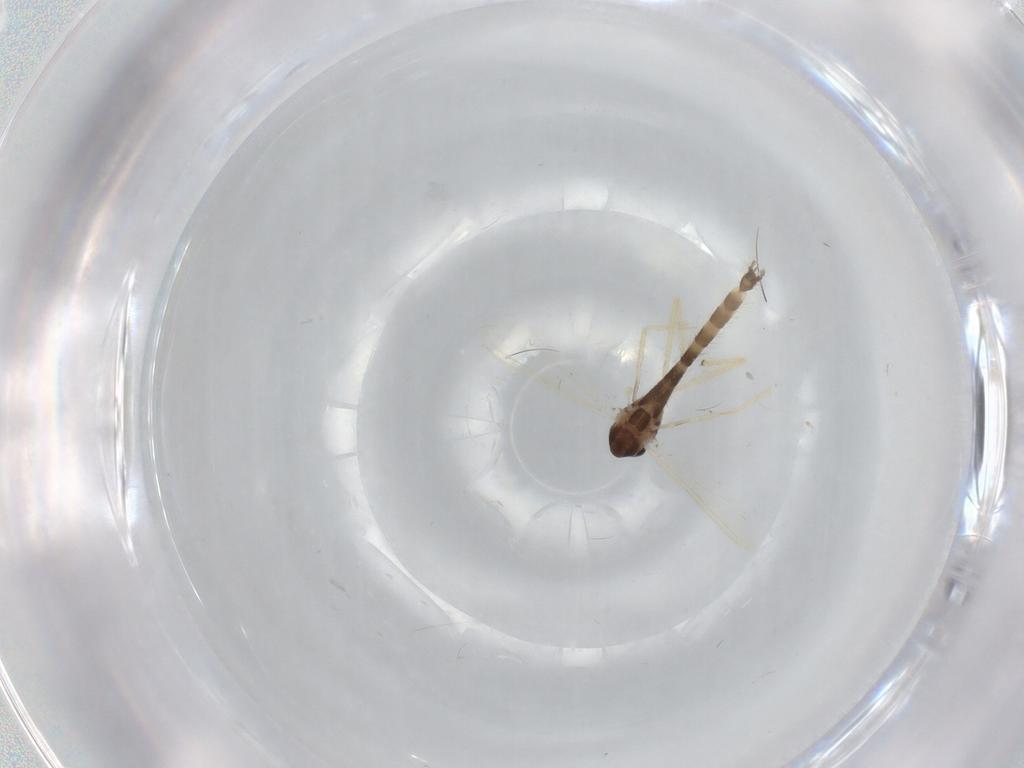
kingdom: Animalia
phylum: Arthropoda
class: Insecta
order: Diptera
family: Chironomidae
